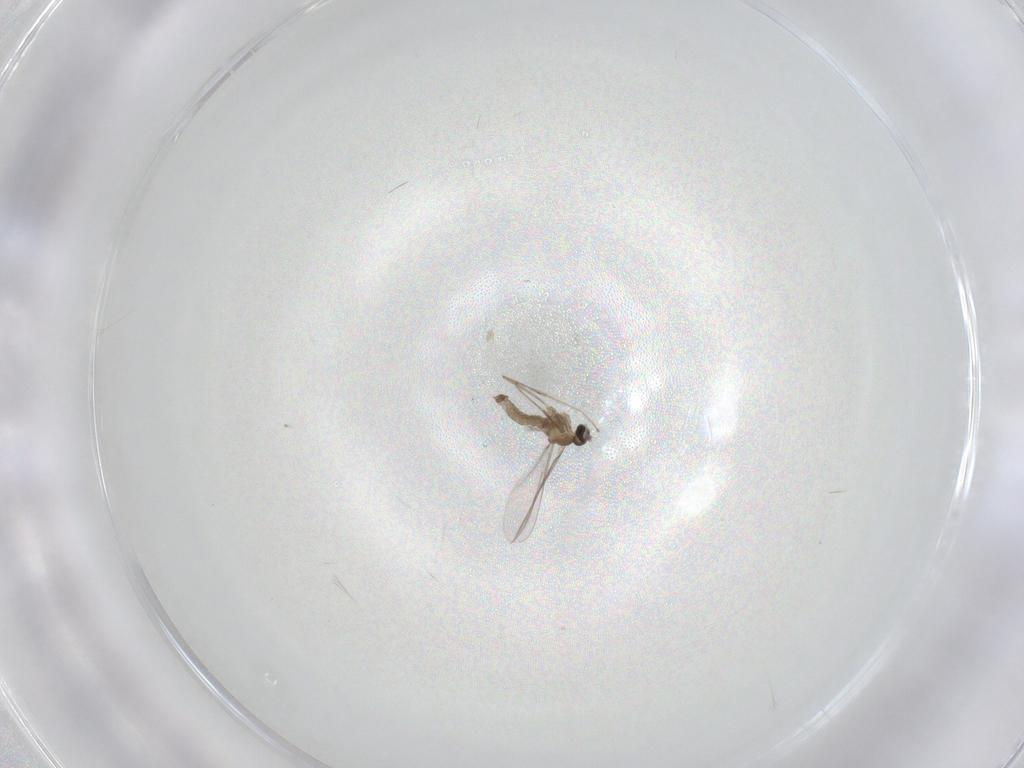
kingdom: Animalia
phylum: Arthropoda
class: Insecta
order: Diptera
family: Cecidomyiidae
